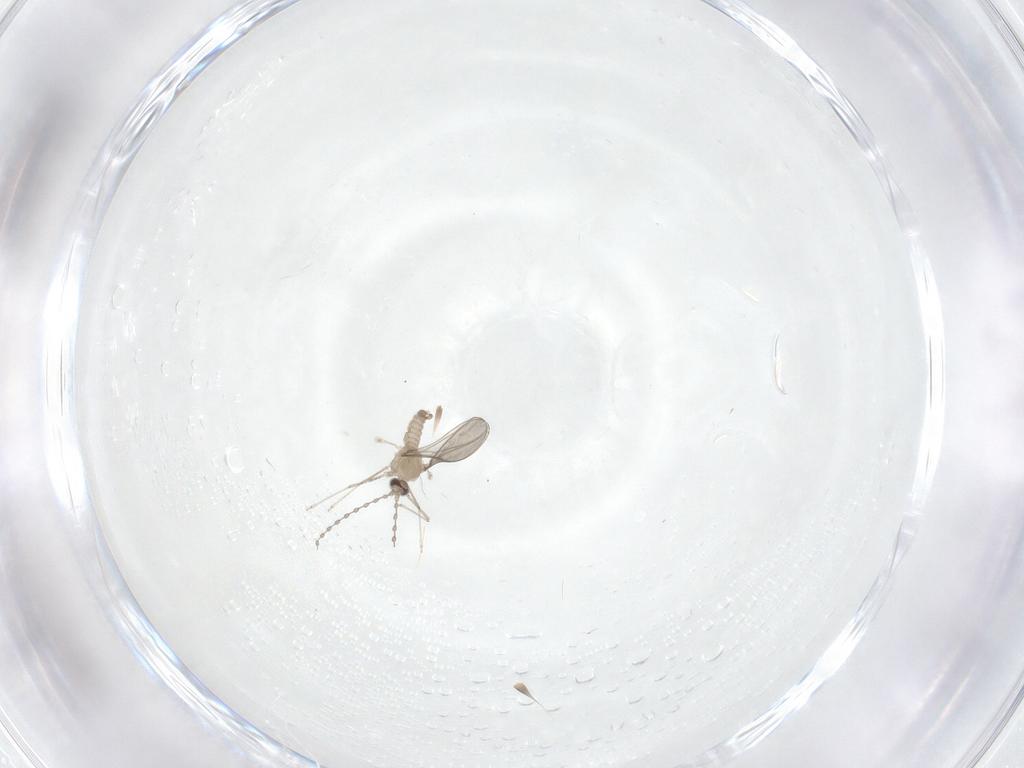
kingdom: Animalia
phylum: Arthropoda
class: Insecta
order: Diptera
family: Cecidomyiidae
